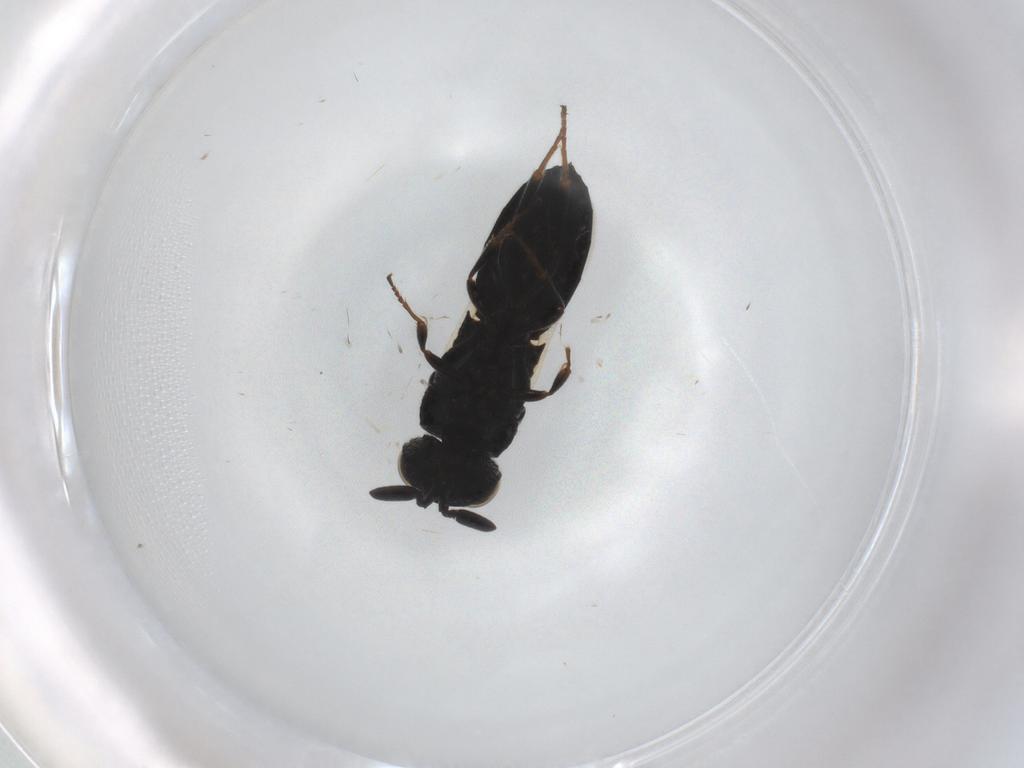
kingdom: Animalia
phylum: Arthropoda
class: Insecta
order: Hymenoptera
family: Scelionidae
